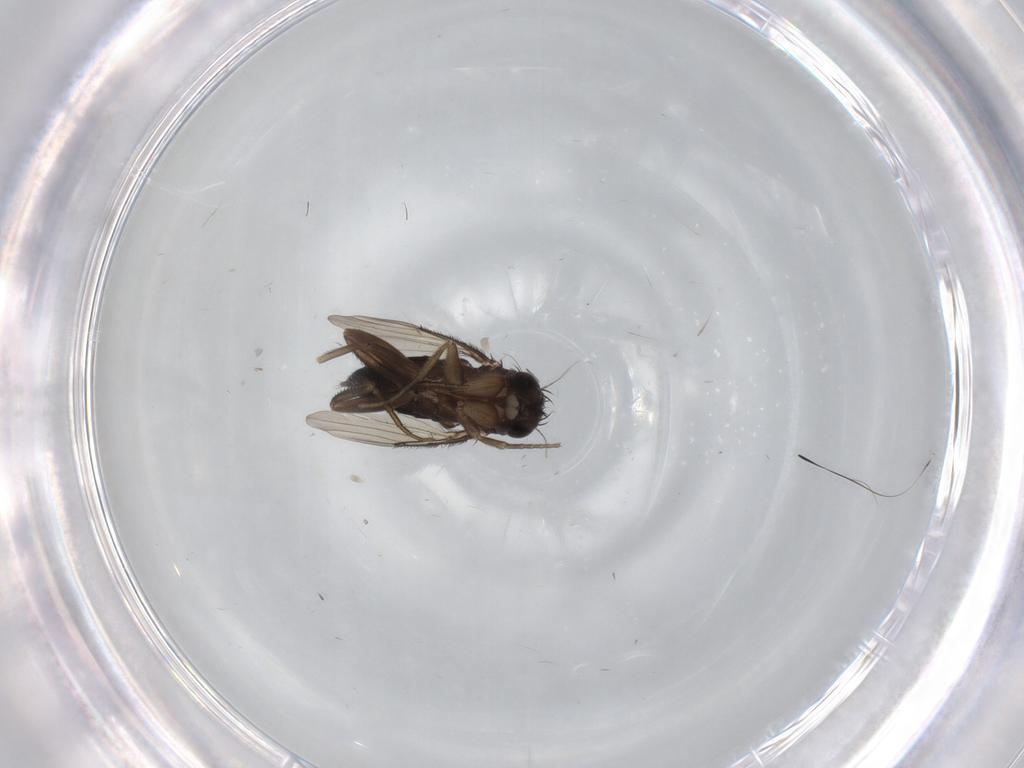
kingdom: Animalia
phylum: Arthropoda
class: Insecta
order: Diptera
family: Phoridae
